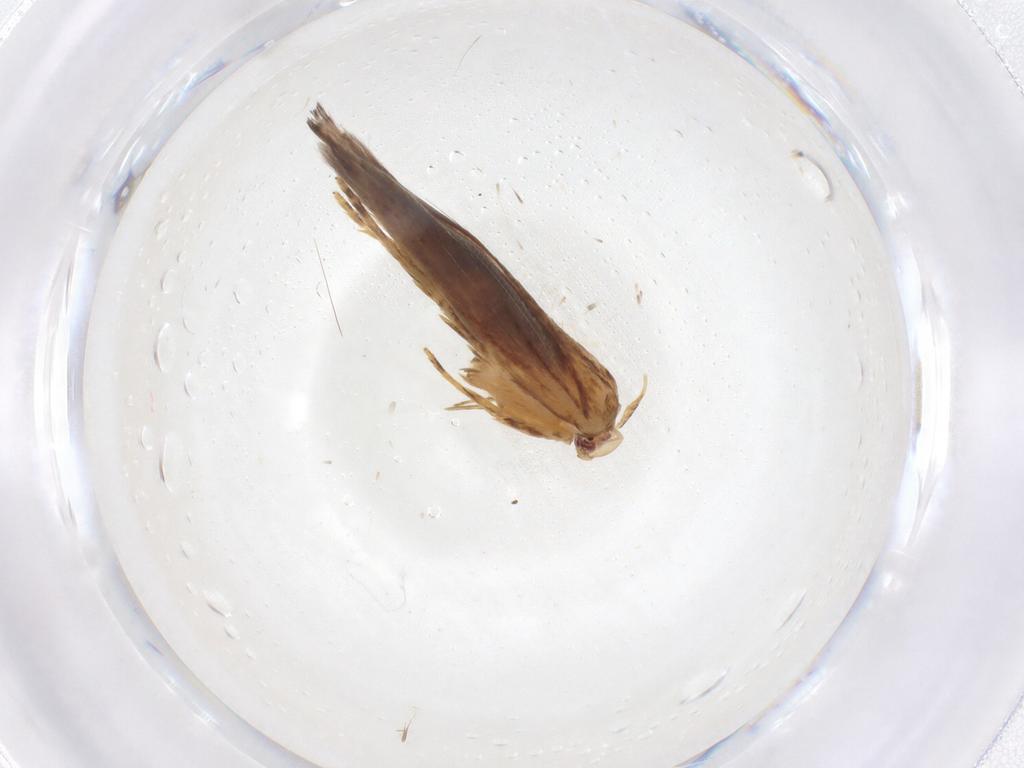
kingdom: Animalia
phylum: Arthropoda
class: Insecta
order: Lepidoptera
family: Cosmopterigidae
